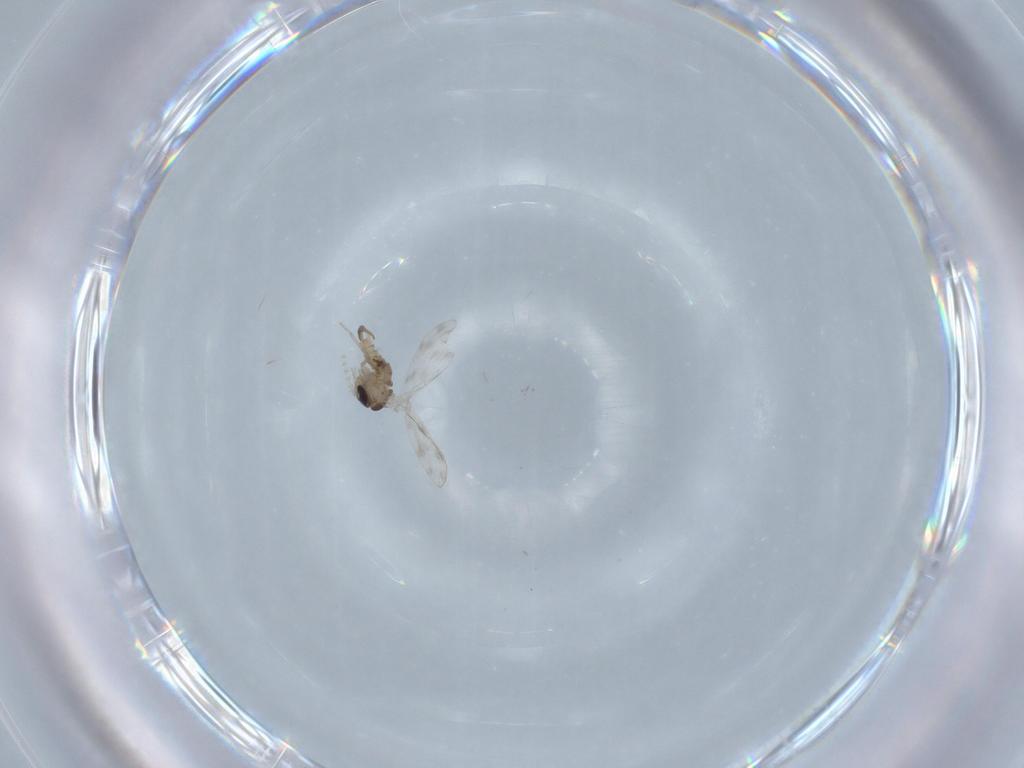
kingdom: Animalia
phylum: Arthropoda
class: Insecta
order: Diptera
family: Psychodidae
